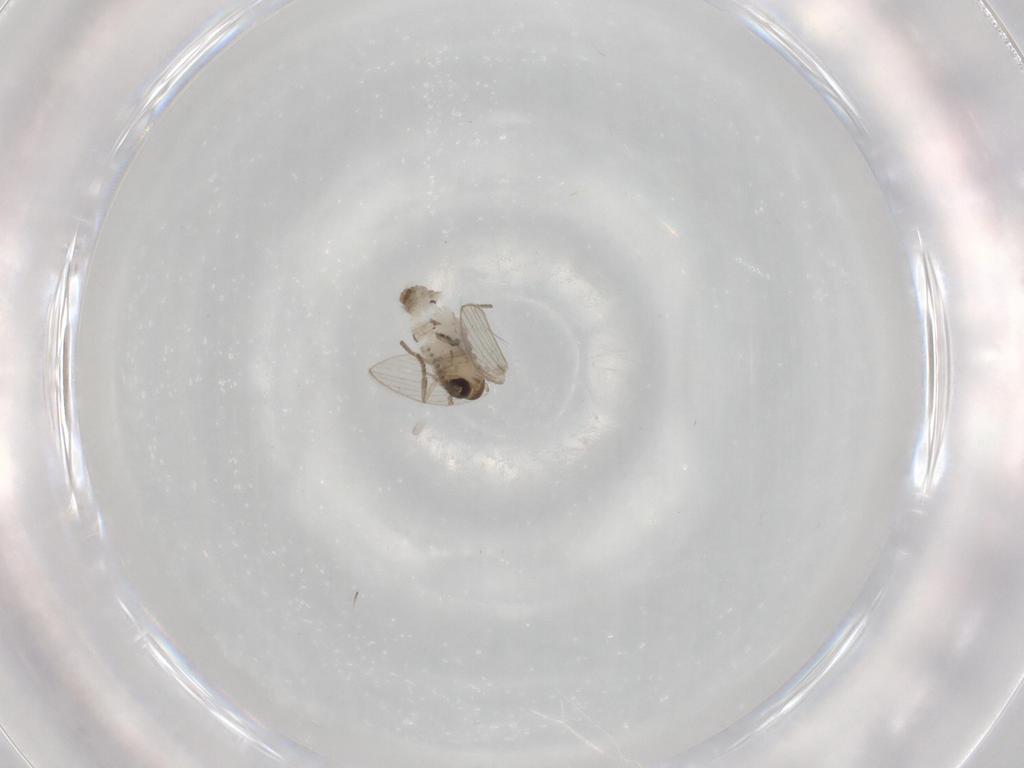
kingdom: Animalia
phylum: Arthropoda
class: Insecta
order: Diptera
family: Psychodidae
